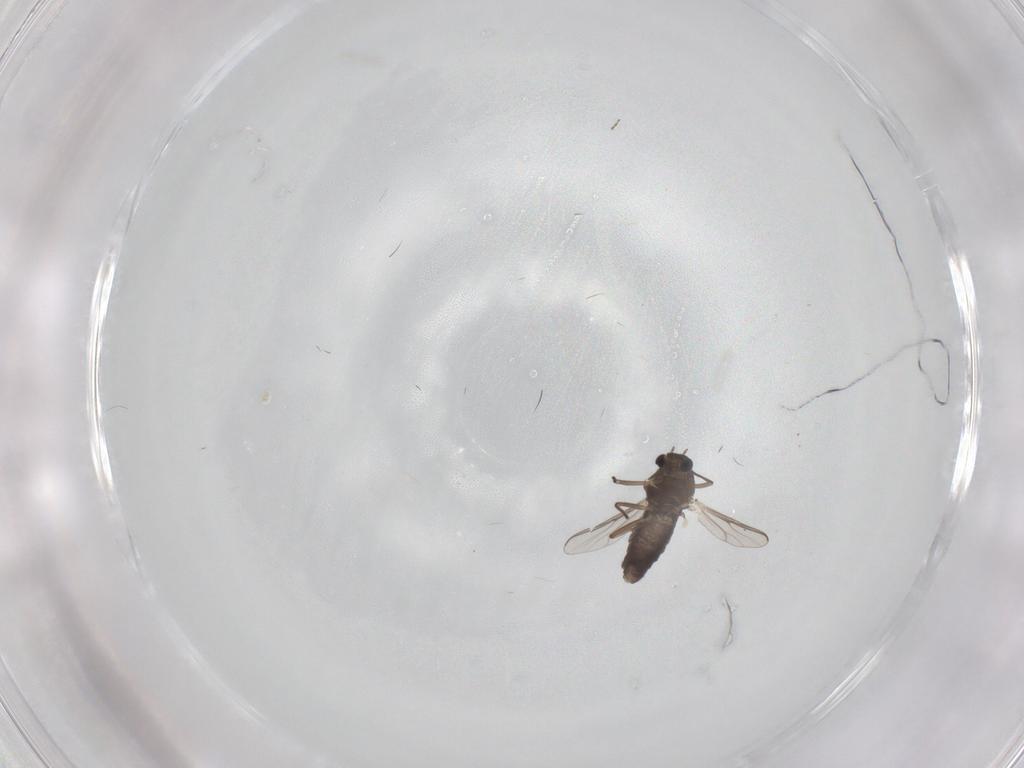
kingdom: Animalia
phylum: Arthropoda
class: Insecta
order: Diptera
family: Chironomidae
